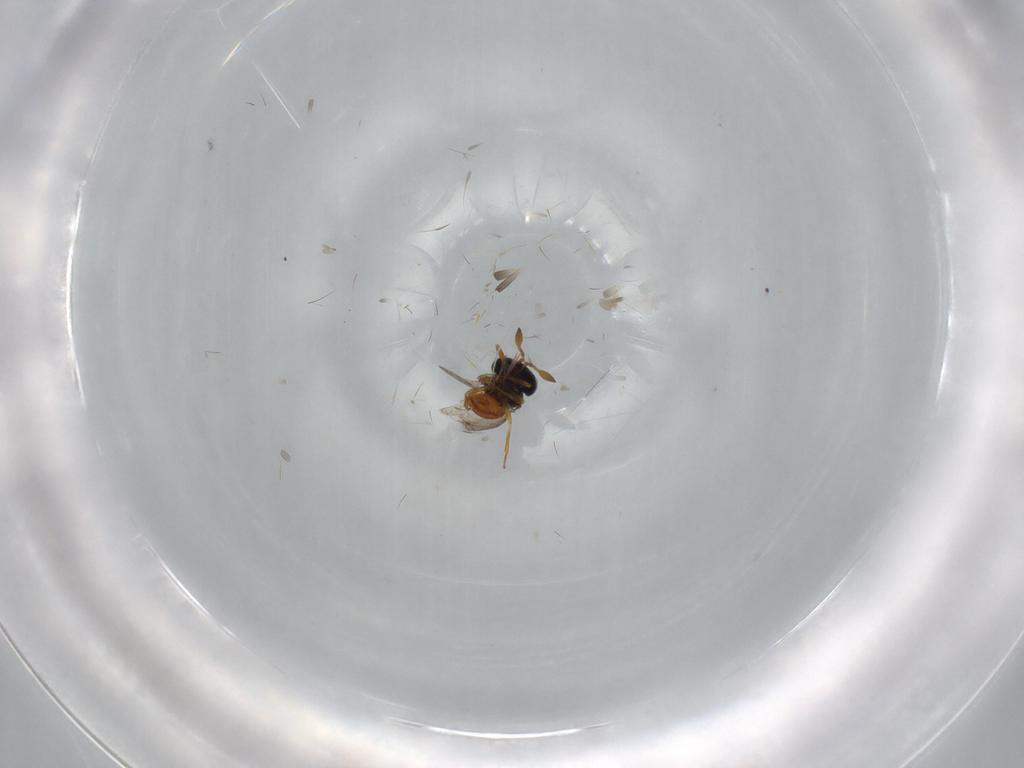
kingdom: Animalia
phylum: Arthropoda
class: Insecta
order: Hymenoptera
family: Scelionidae
